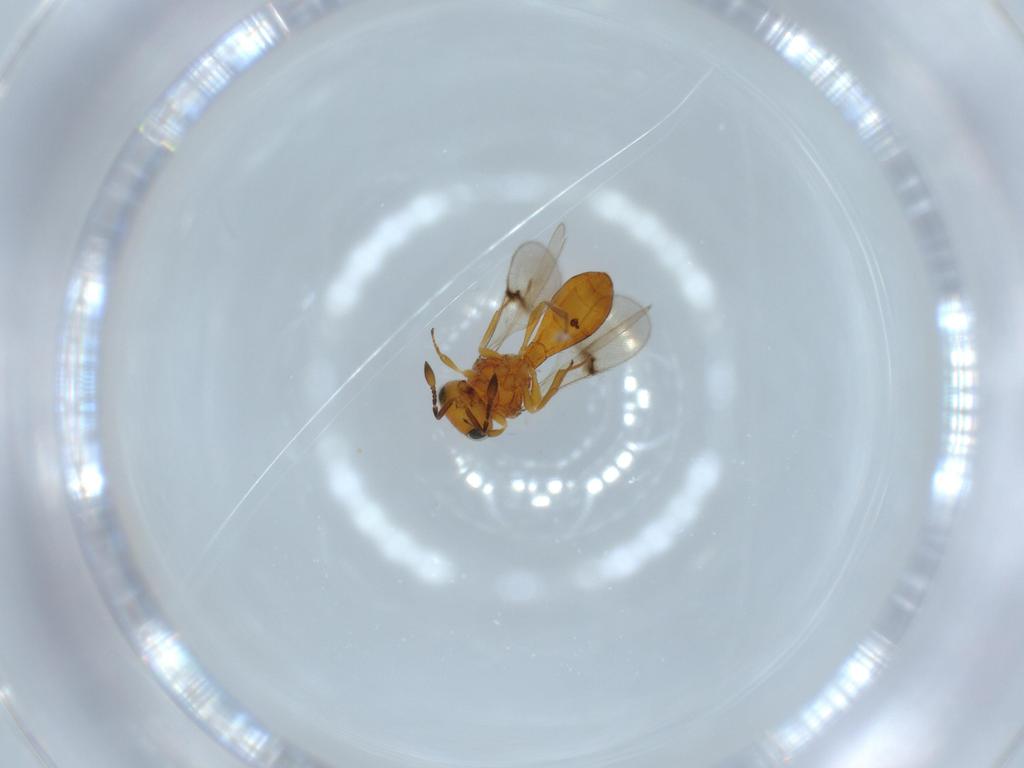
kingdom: Animalia
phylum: Arthropoda
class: Insecta
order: Hymenoptera
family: Scelionidae
